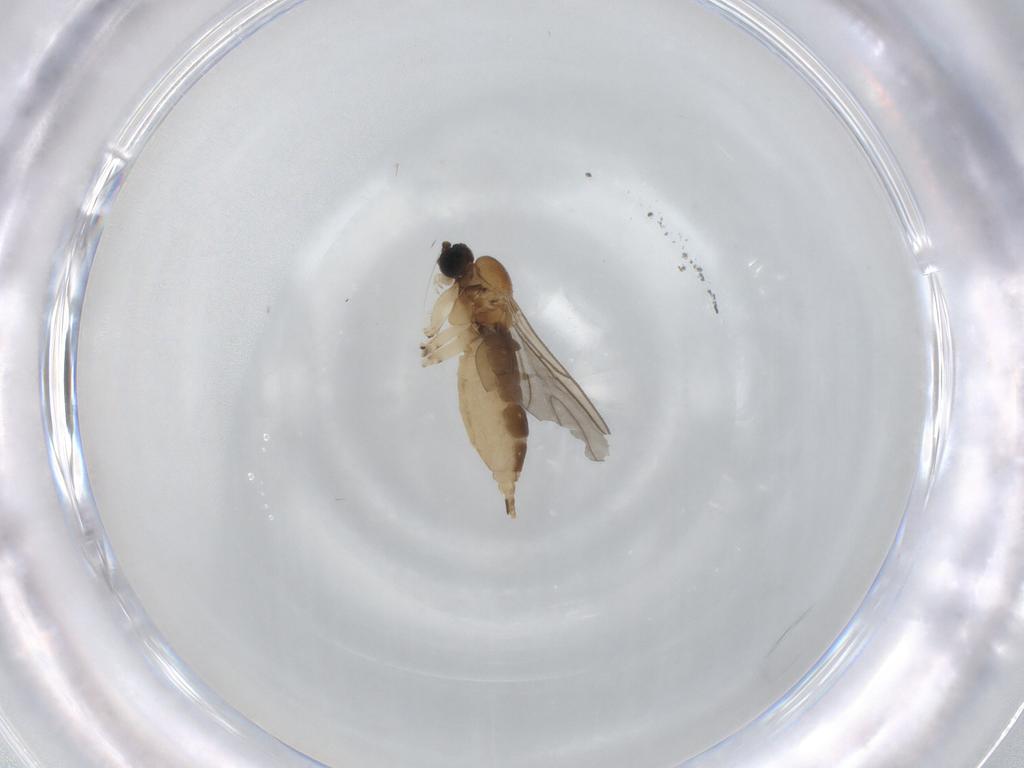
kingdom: Animalia
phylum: Arthropoda
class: Insecta
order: Diptera
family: Sciaridae
